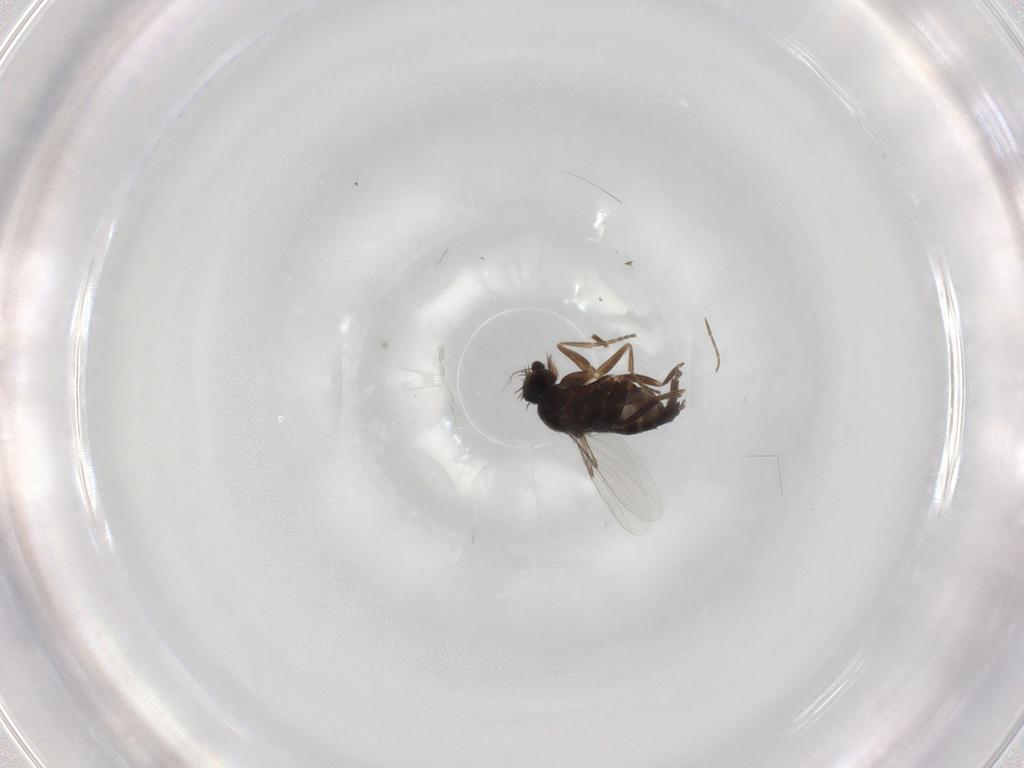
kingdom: Animalia
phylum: Arthropoda
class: Insecta
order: Diptera
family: Phoridae
